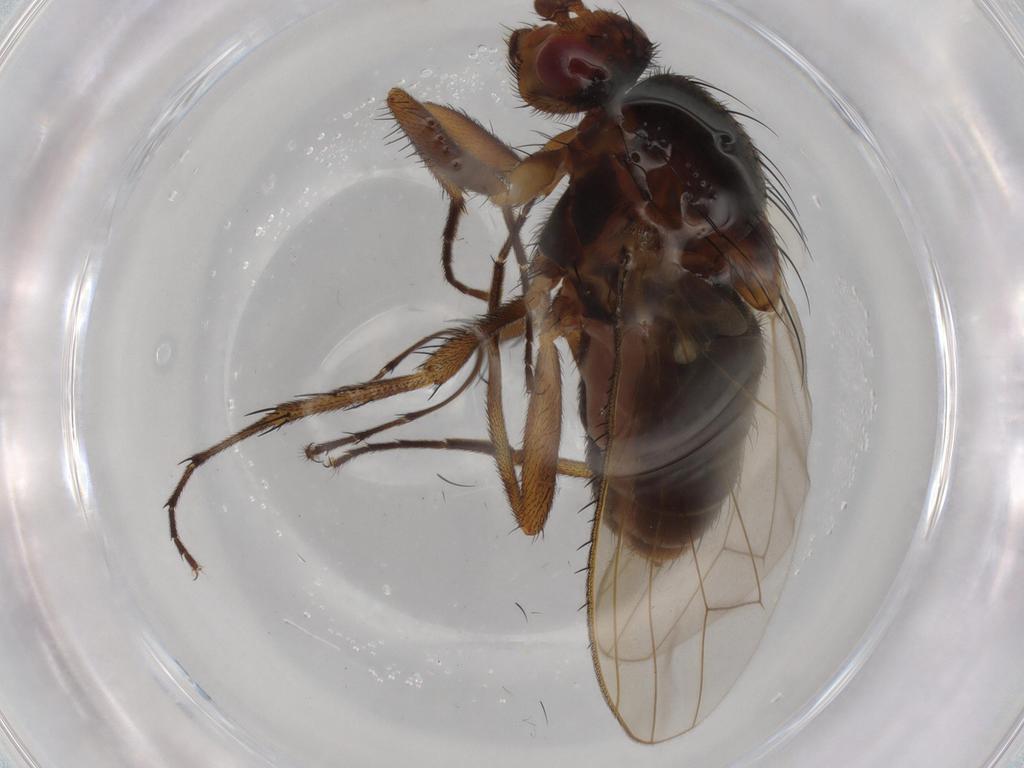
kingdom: Animalia
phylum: Arthropoda
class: Insecta
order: Diptera
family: Heleomyzidae
